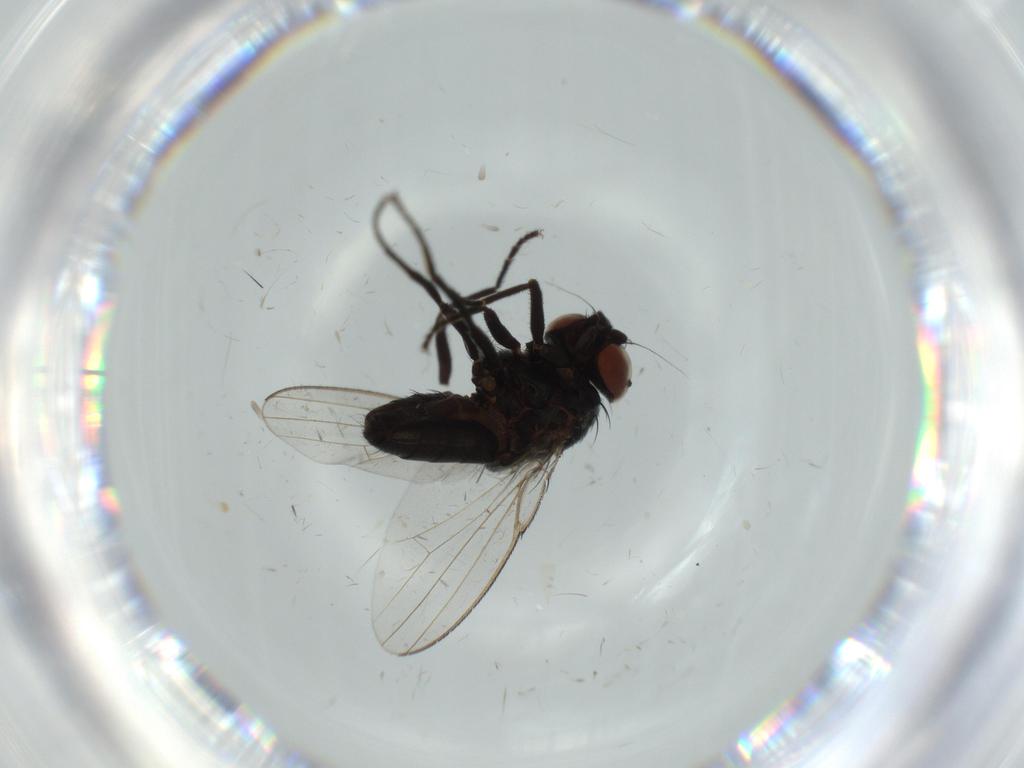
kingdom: Animalia
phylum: Arthropoda
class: Insecta
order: Diptera
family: Milichiidae
